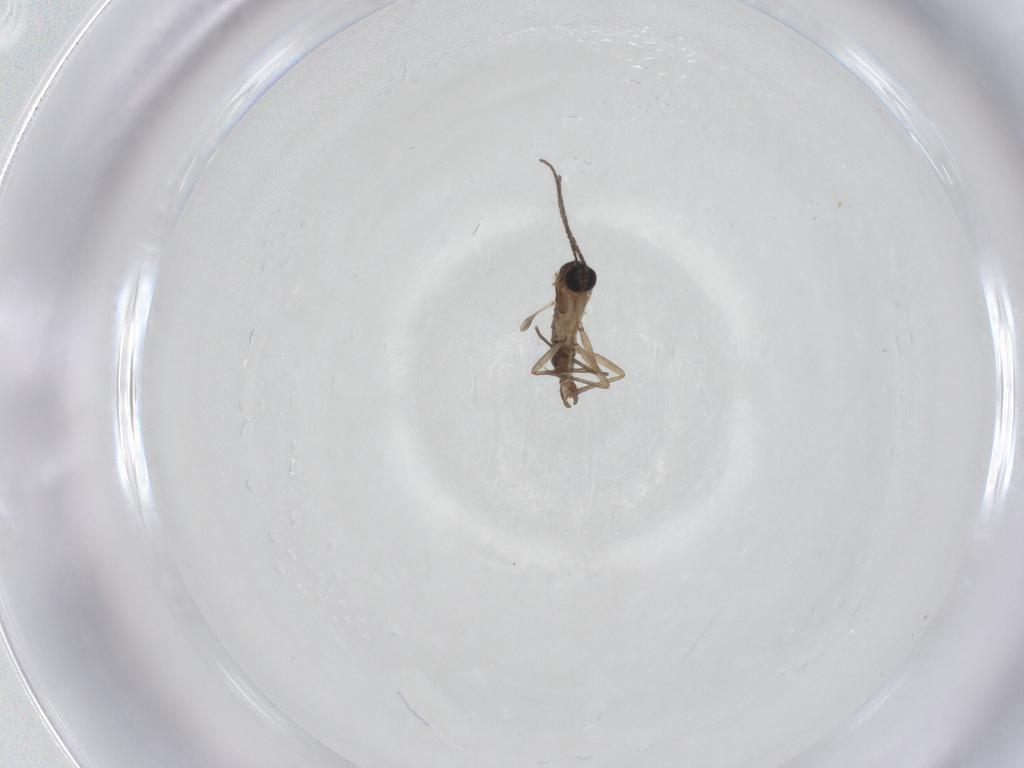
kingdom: Animalia
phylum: Arthropoda
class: Insecta
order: Diptera
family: Sciaridae
